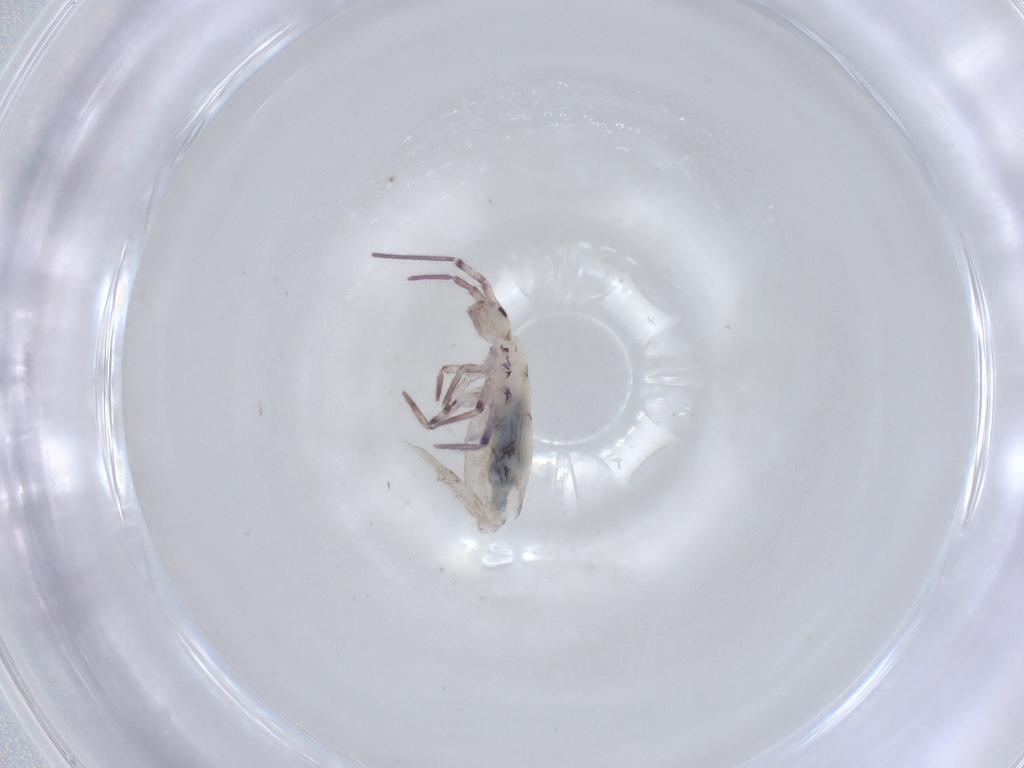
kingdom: Animalia
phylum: Arthropoda
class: Collembola
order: Entomobryomorpha
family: Entomobryidae
